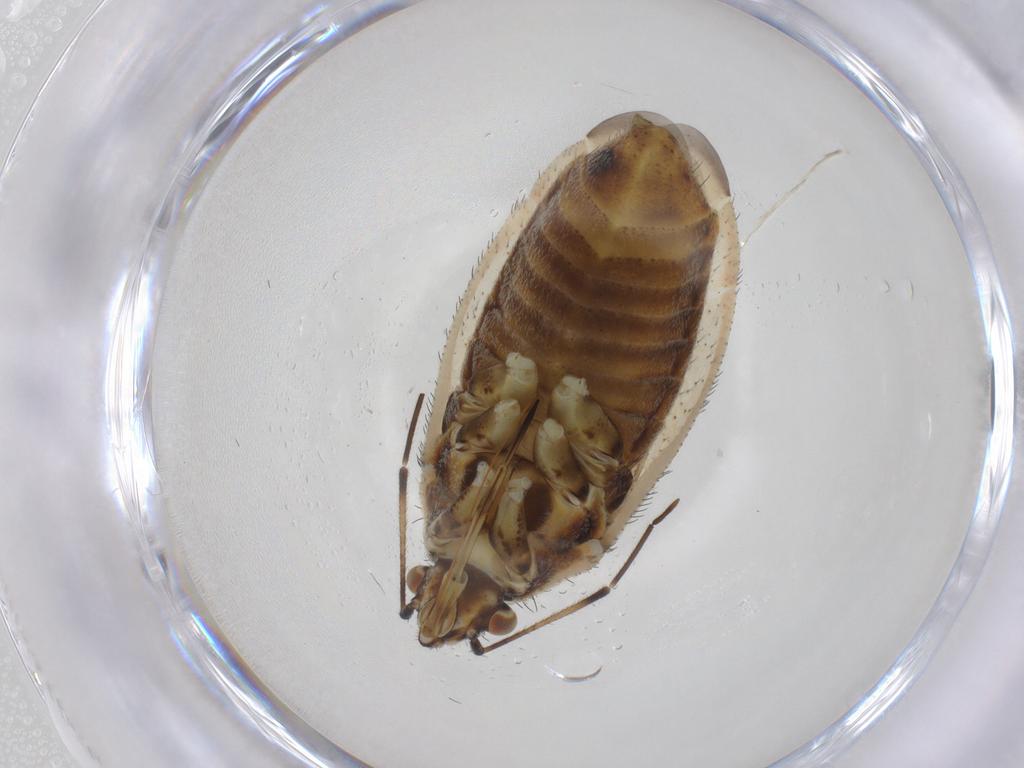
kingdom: Animalia
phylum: Arthropoda
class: Insecta
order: Hemiptera
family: Miridae
